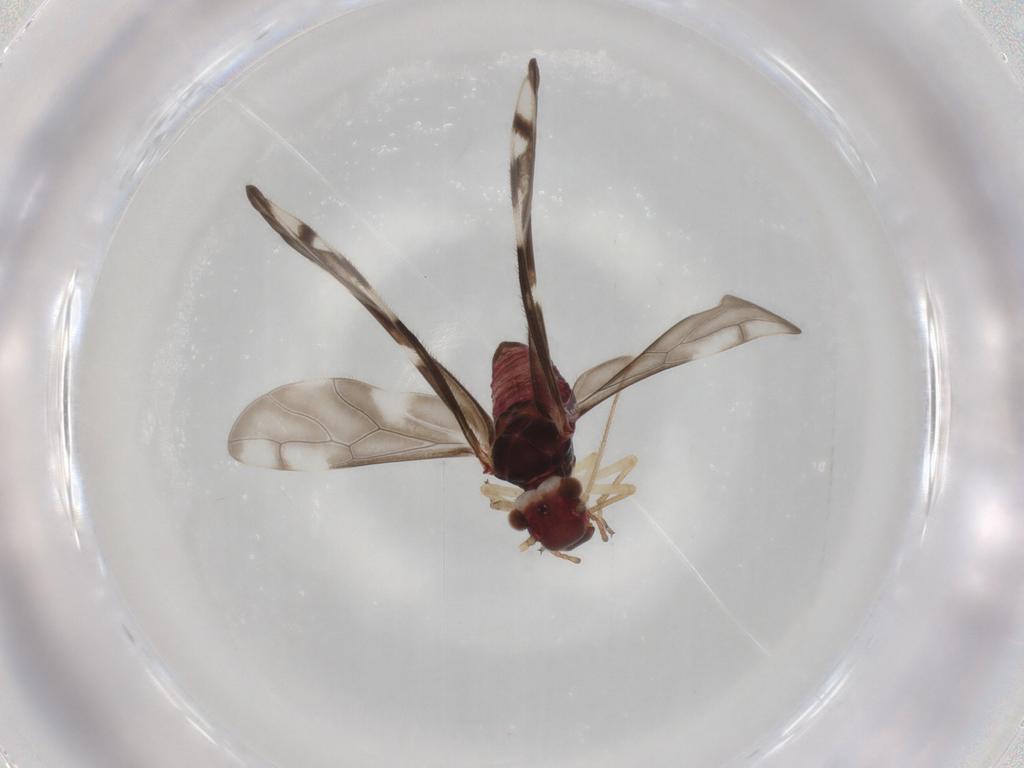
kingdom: Animalia
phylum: Arthropoda
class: Insecta
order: Psocodea
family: Caeciliusidae
